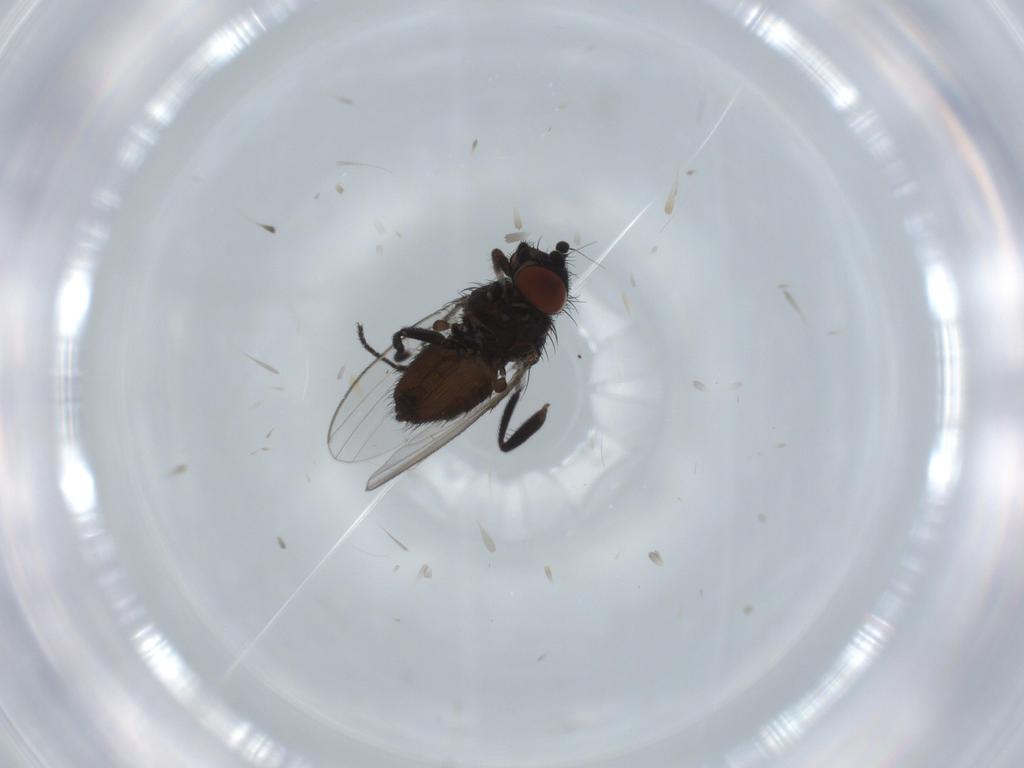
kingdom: Animalia
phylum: Arthropoda
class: Insecta
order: Diptera
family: Milichiidae
